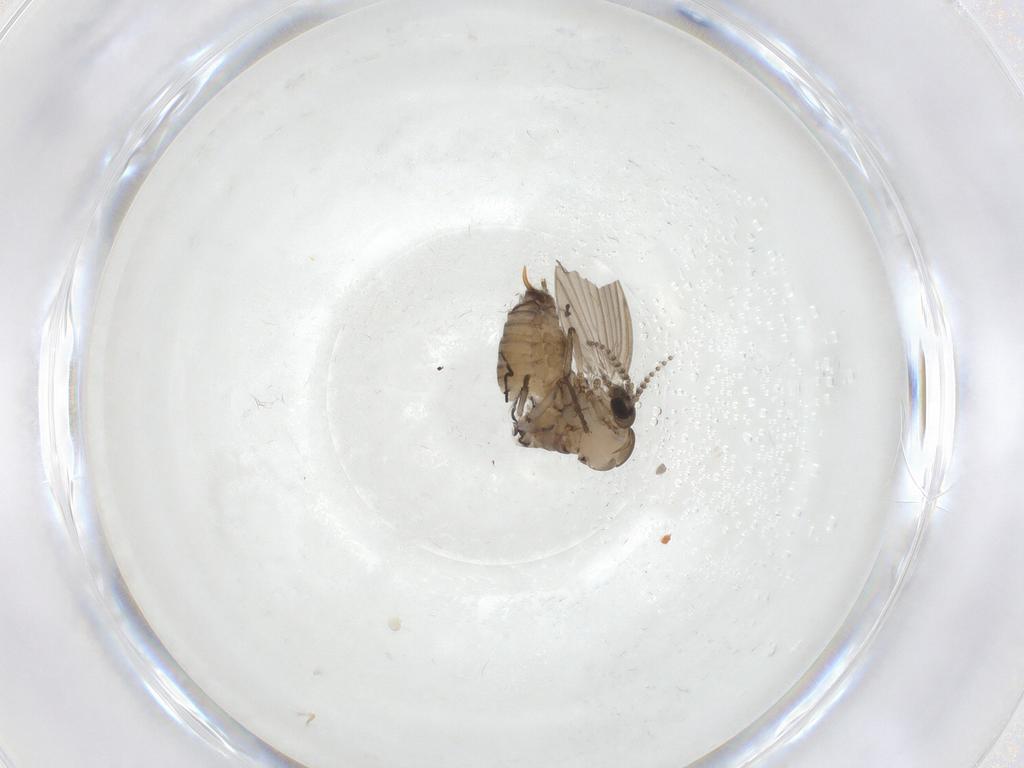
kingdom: Animalia
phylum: Arthropoda
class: Insecta
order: Diptera
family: Psychodidae
